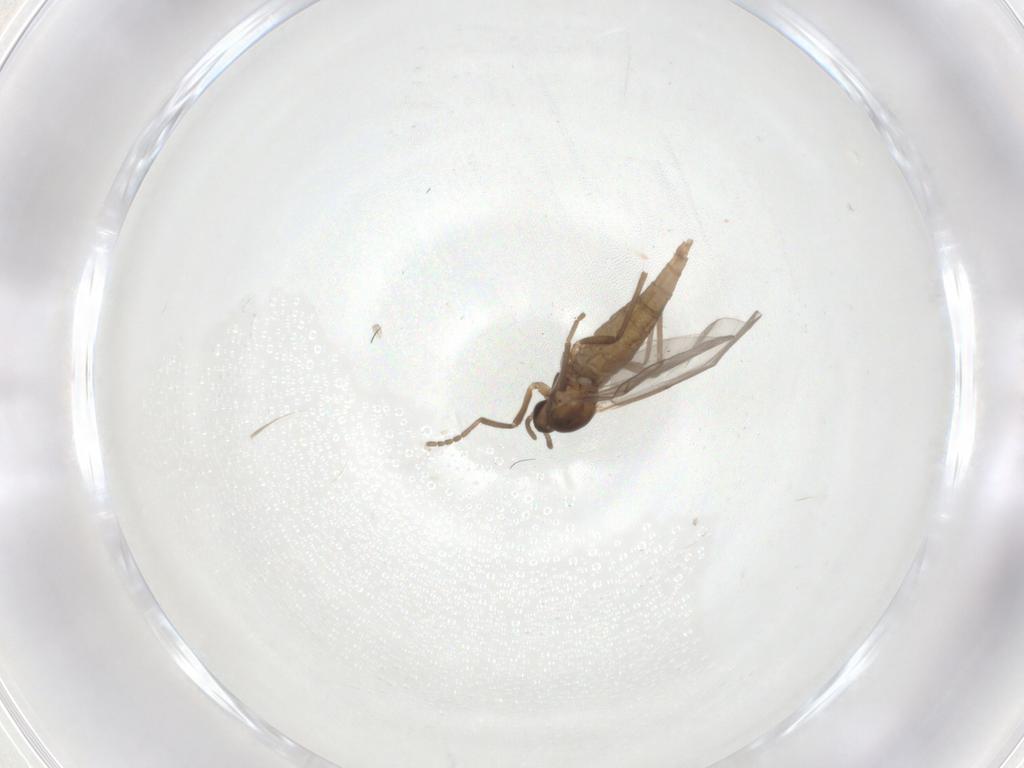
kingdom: Animalia
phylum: Arthropoda
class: Insecta
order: Diptera
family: Cecidomyiidae
